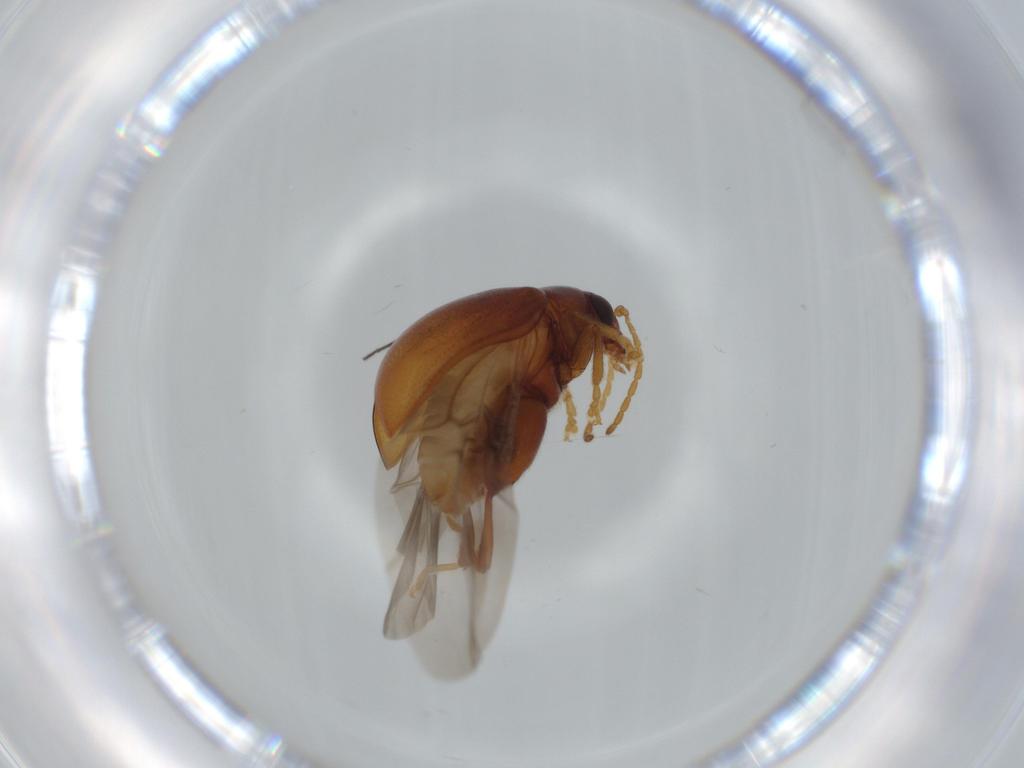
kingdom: Animalia
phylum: Arthropoda
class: Insecta
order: Coleoptera
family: Chrysomelidae
